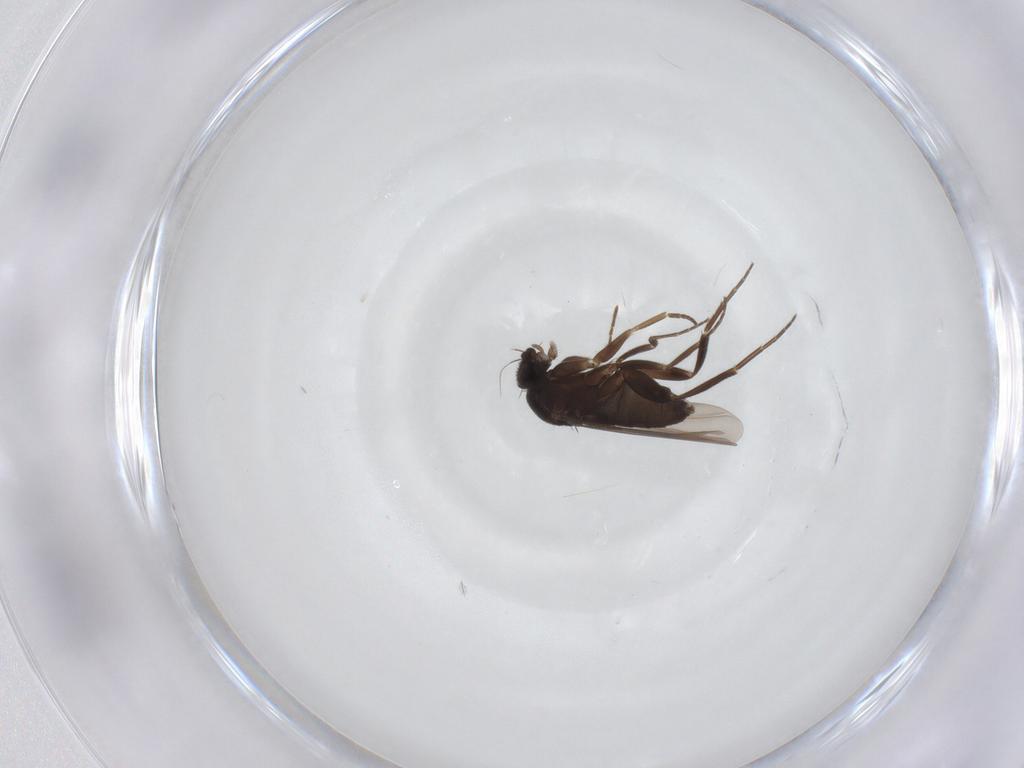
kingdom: Animalia
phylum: Arthropoda
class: Insecta
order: Diptera
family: Phoridae
